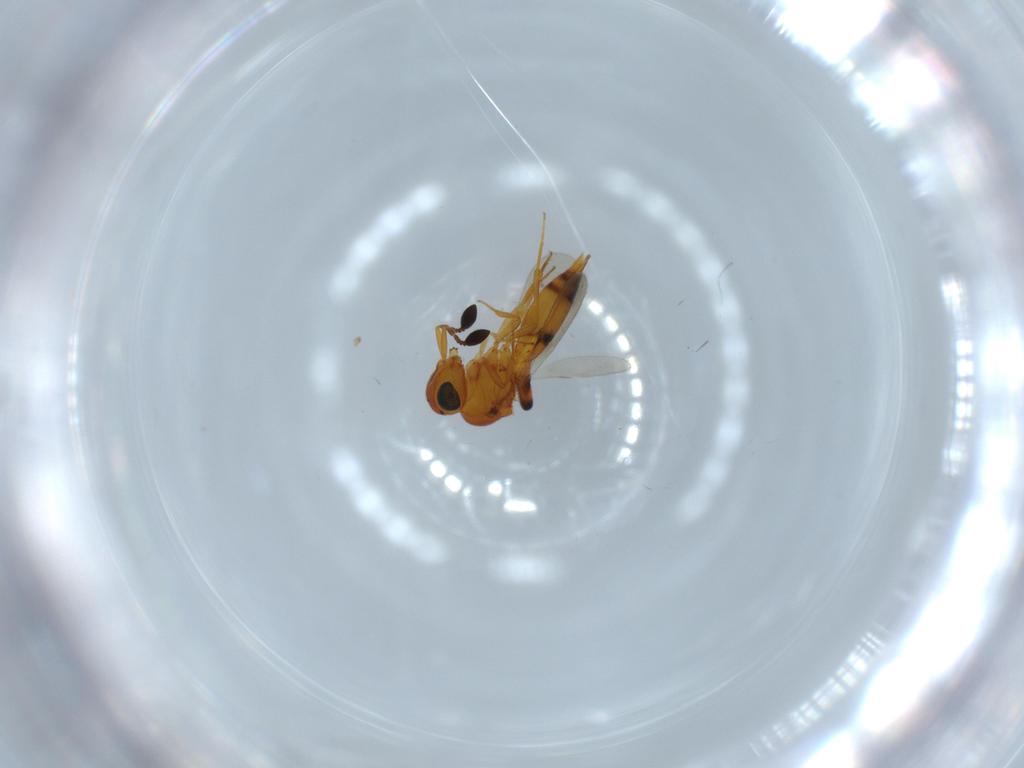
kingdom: Animalia
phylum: Arthropoda
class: Insecta
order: Hymenoptera
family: Scelionidae
